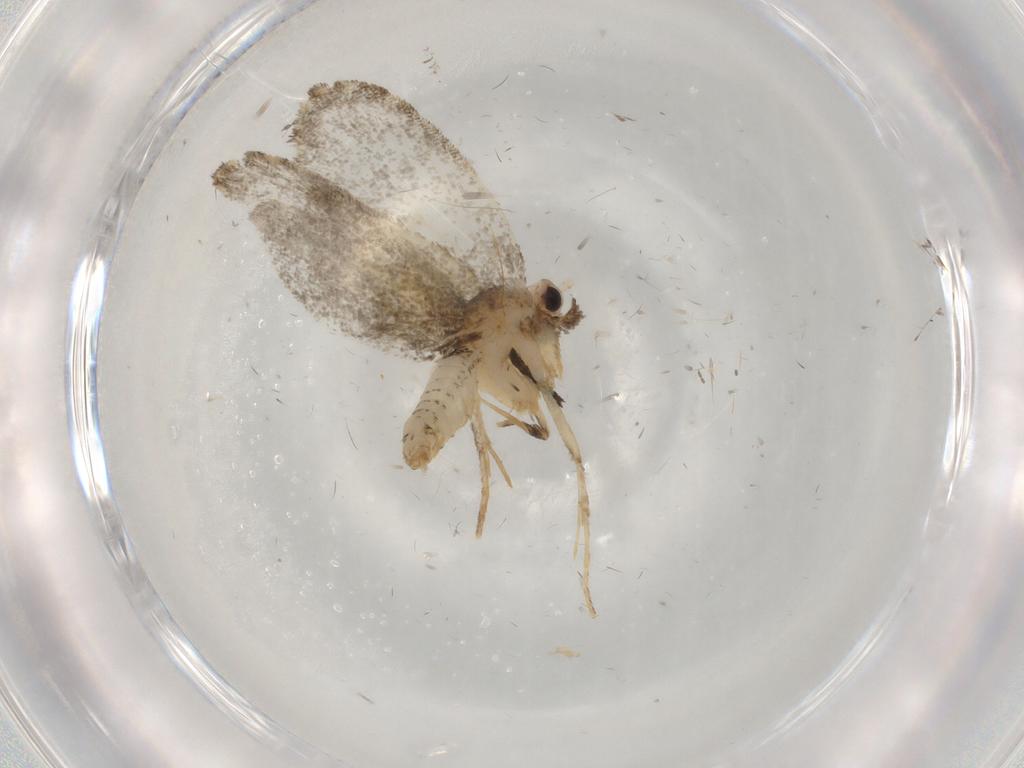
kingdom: Animalia
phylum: Arthropoda
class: Insecta
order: Lepidoptera
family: Psychidae
